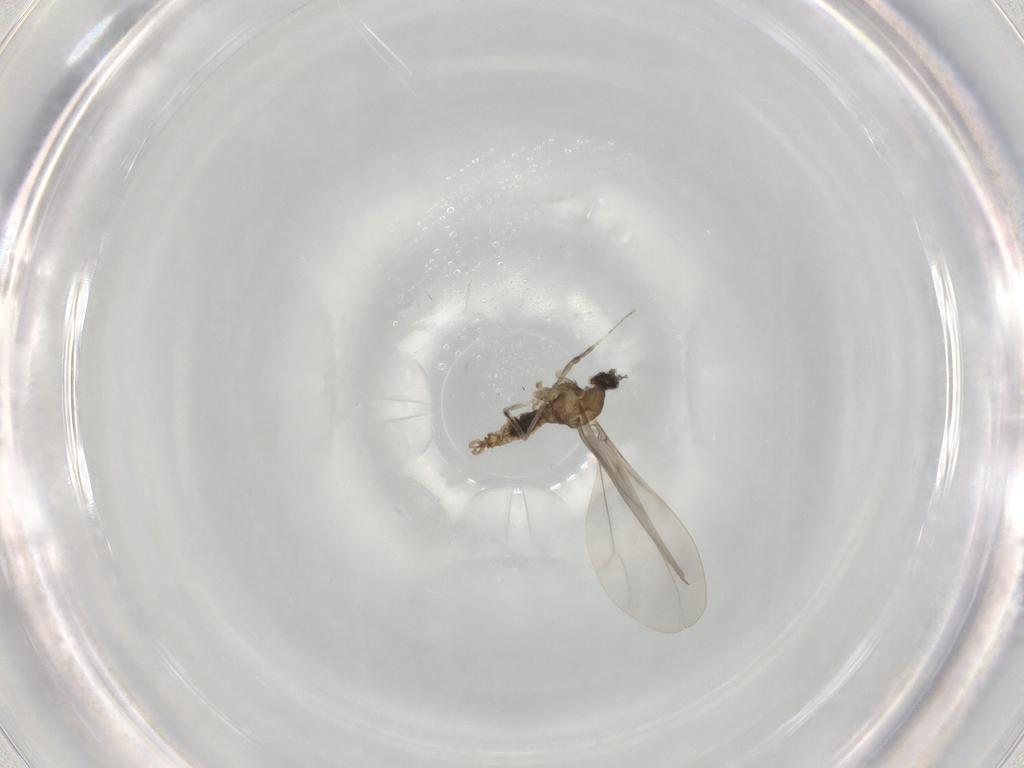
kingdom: Animalia
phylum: Arthropoda
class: Insecta
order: Diptera
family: Cecidomyiidae
